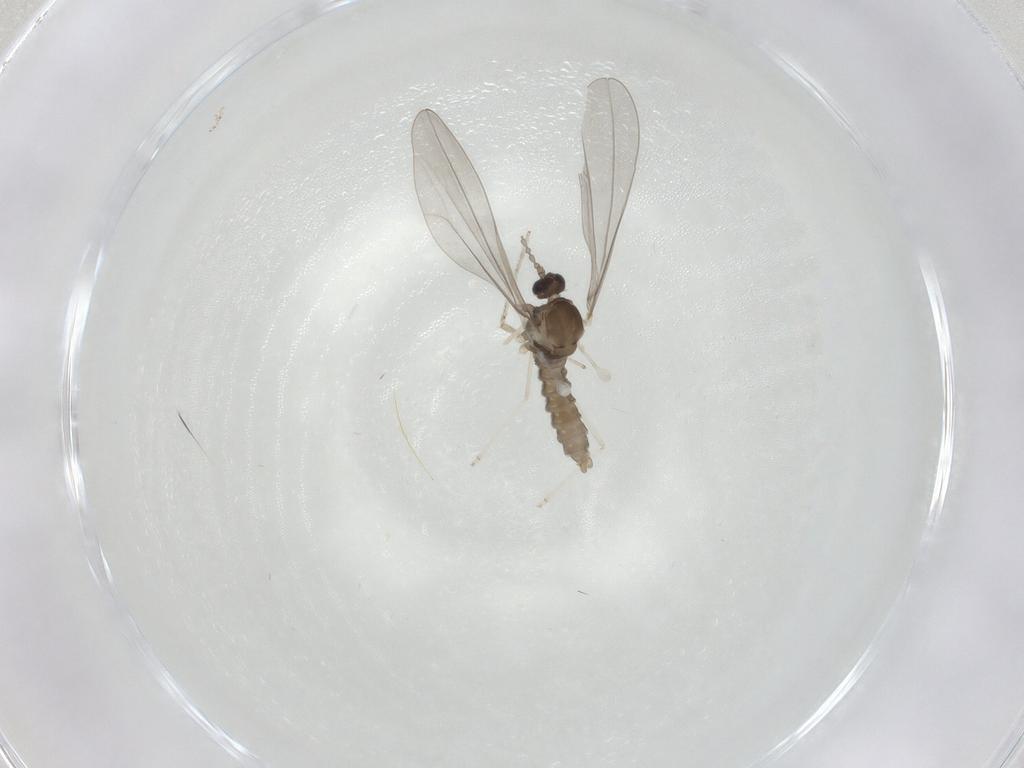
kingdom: Animalia
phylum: Arthropoda
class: Insecta
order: Diptera
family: Cecidomyiidae
